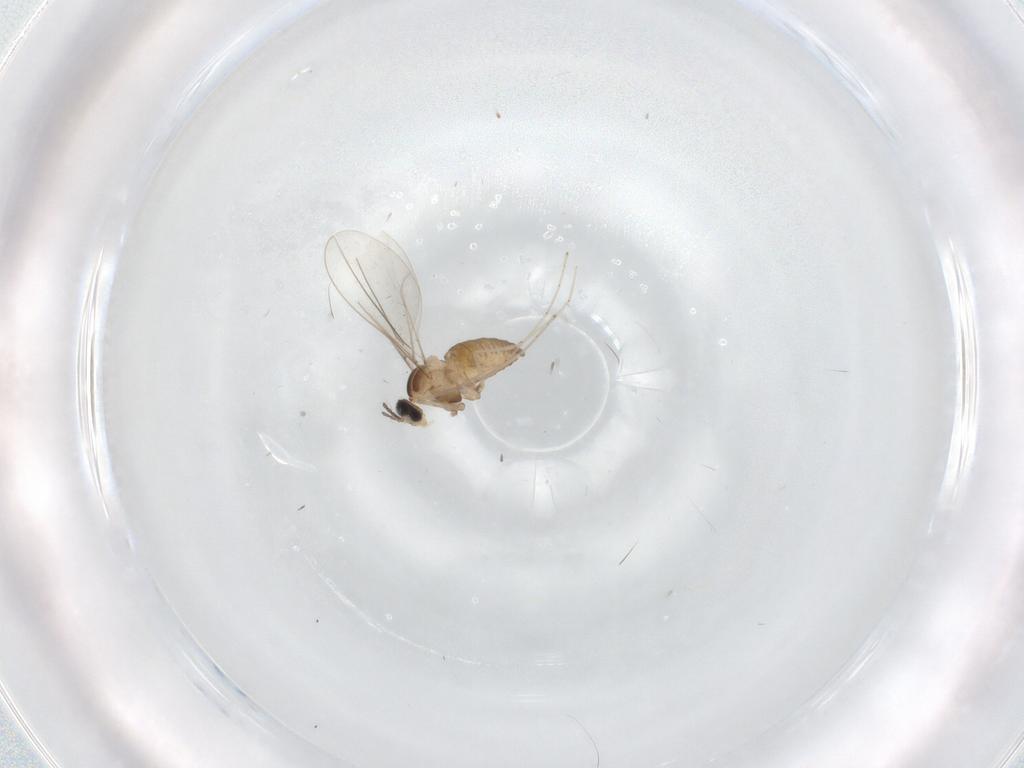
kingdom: Animalia
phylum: Arthropoda
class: Insecta
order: Diptera
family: Cecidomyiidae
